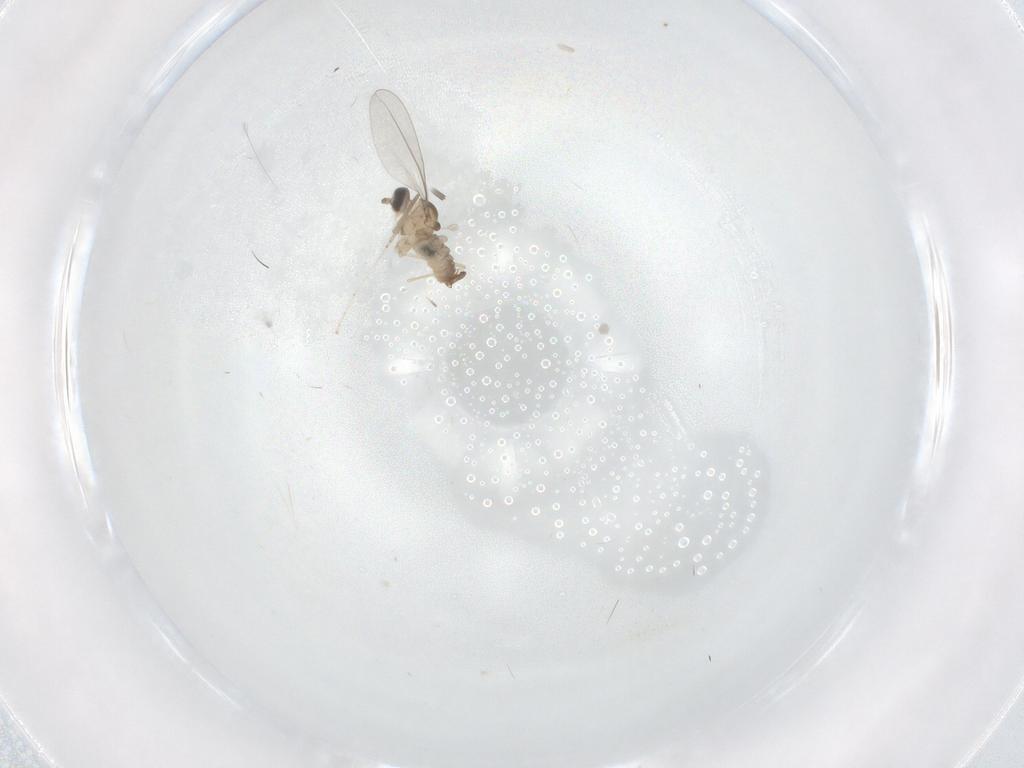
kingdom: Animalia
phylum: Arthropoda
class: Insecta
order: Diptera
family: Cecidomyiidae
